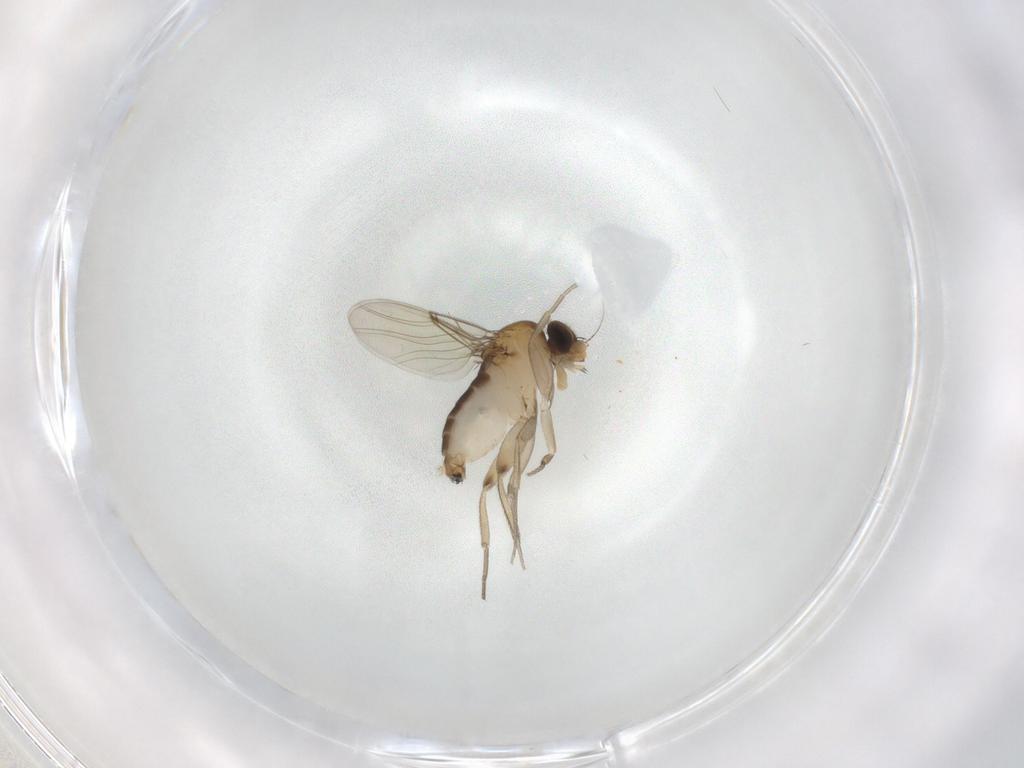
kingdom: Animalia
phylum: Arthropoda
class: Insecta
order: Diptera
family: Phoridae
